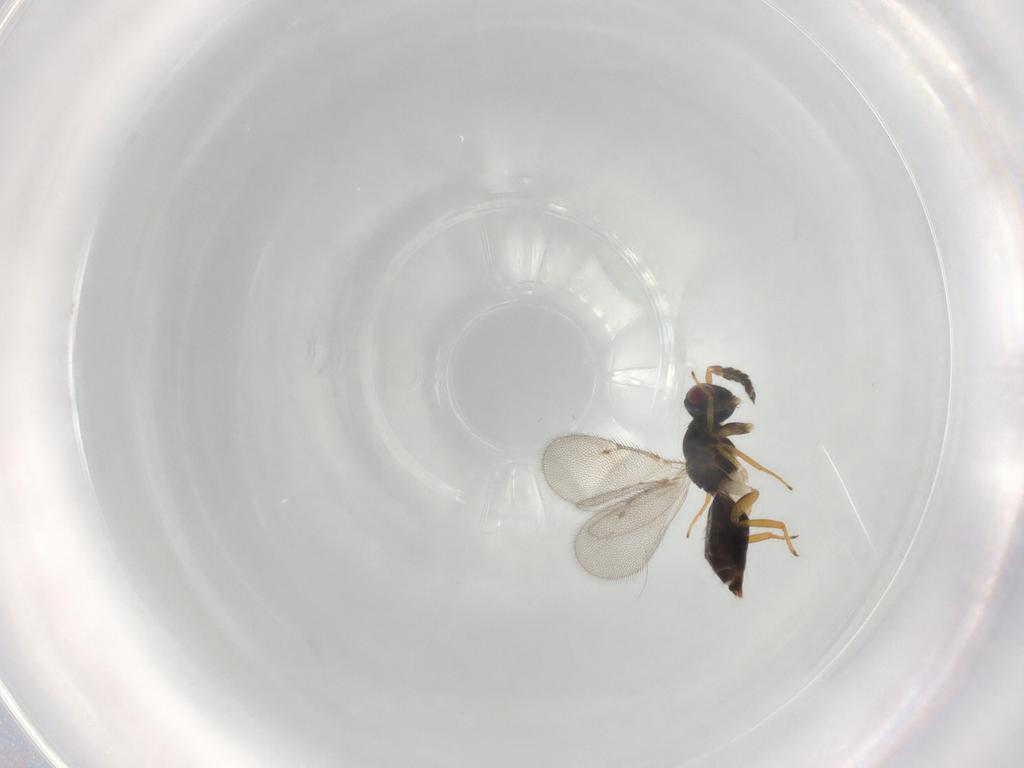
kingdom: Animalia
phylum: Arthropoda
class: Insecta
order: Hymenoptera
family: Eulophidae
